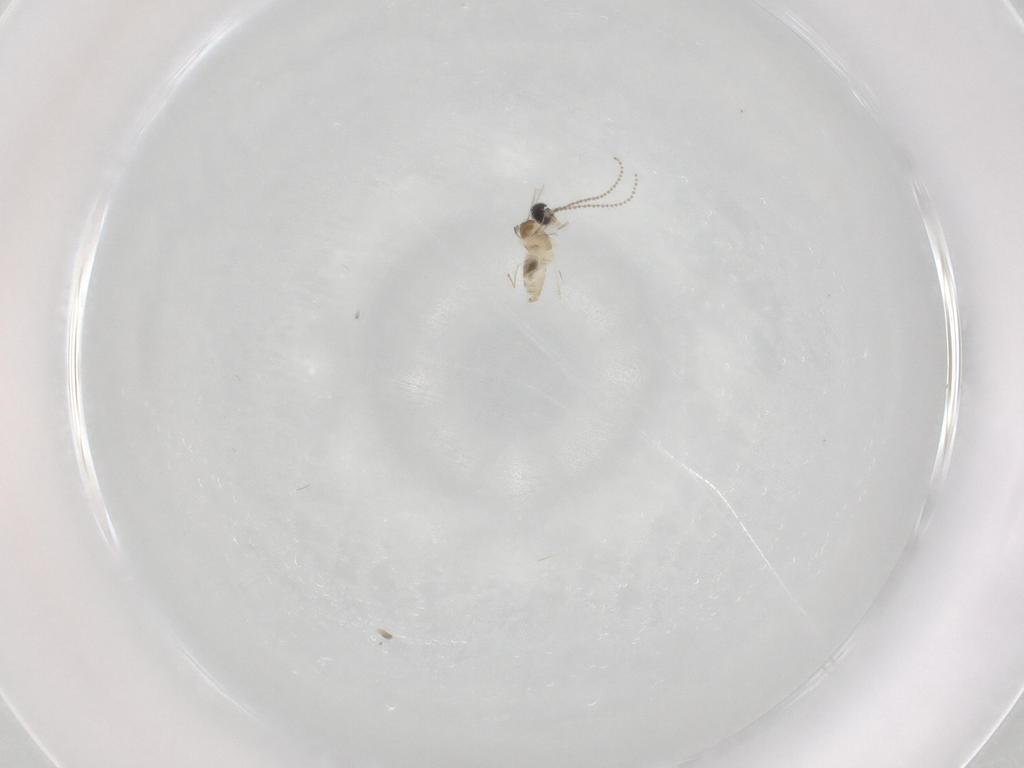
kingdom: Animalia
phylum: Arthropoda
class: Insecta
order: Diptera
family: Cecidomyiidae
